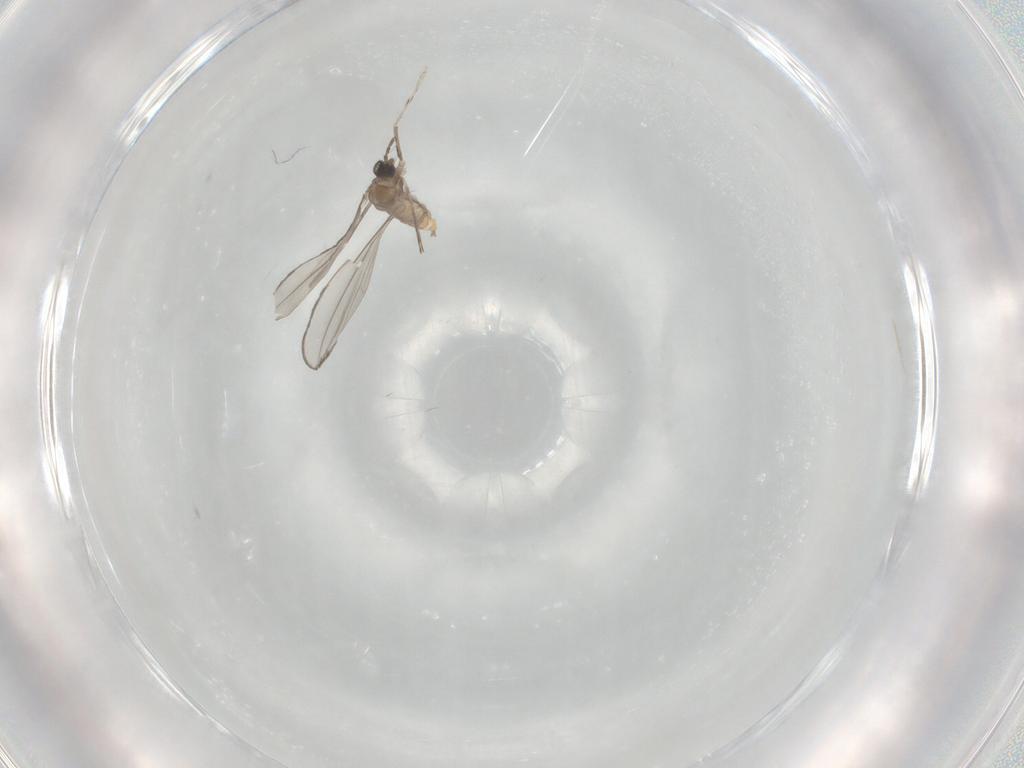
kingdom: Animalia
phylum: Arthropoda
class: Insecta
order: Diptera
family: Cecidomyiidae
